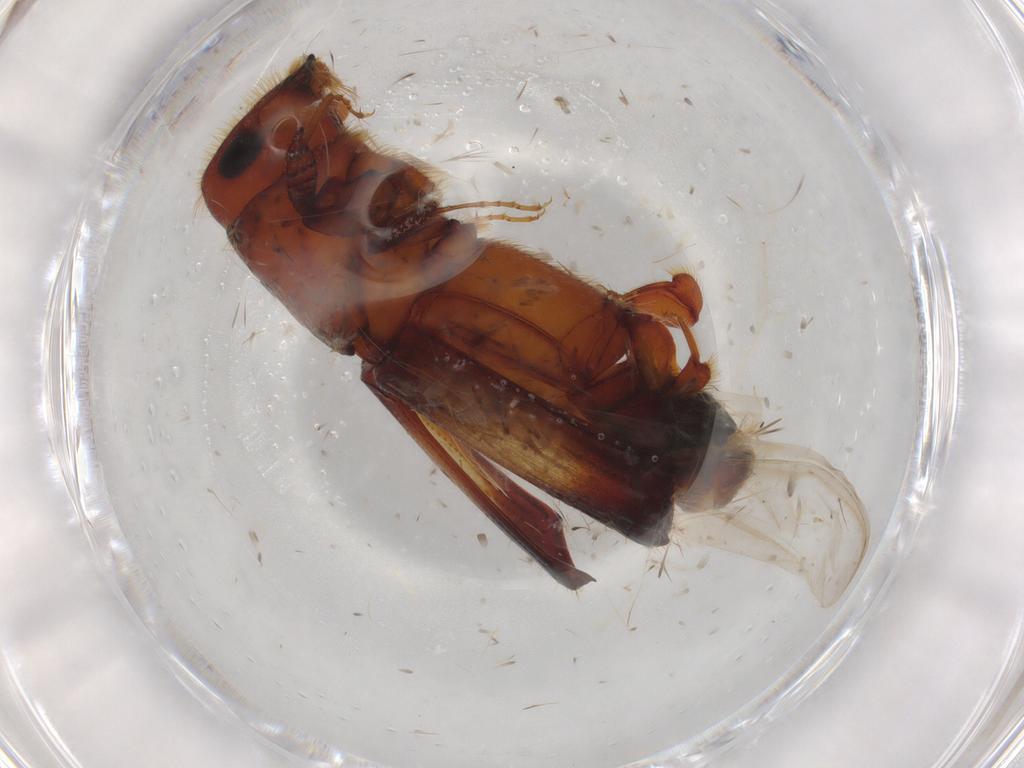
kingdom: Animalia
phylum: Arthropoda
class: Insecta
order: Coleoptera
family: Curculionidae
